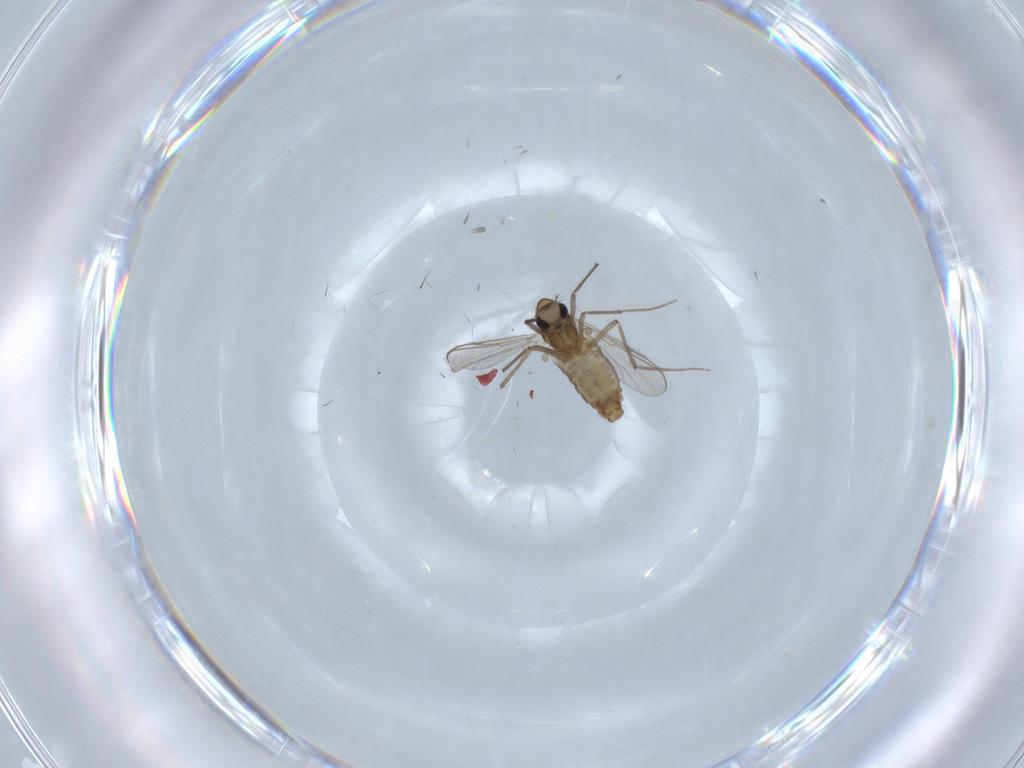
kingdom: Animalia
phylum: Arthropoda
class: Insecta
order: Diptera
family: Chironomidae
